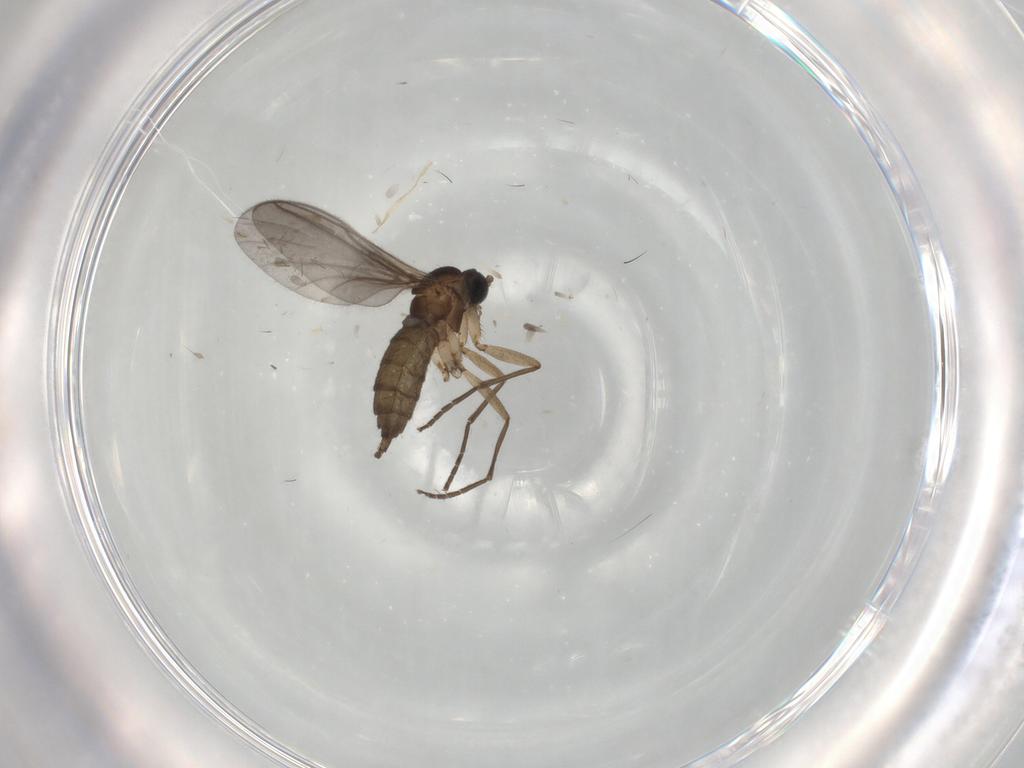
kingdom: Animalia
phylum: Arthropoda
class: Insecta
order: Diptera
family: Sciaridae
